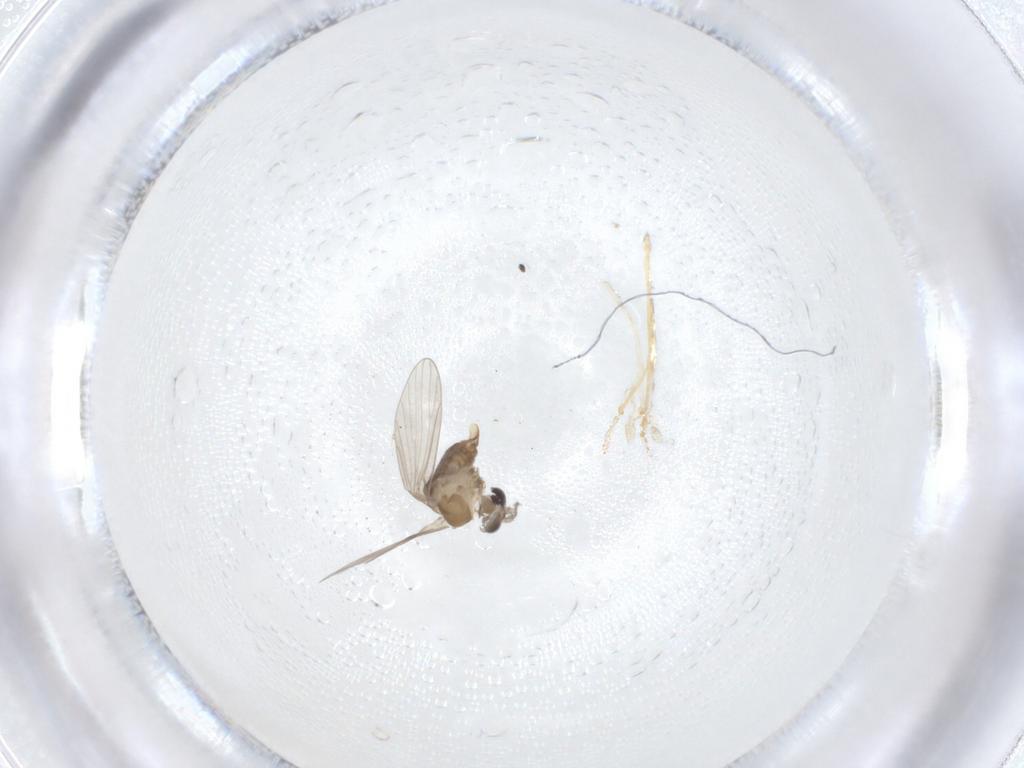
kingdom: Animalia
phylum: Arthropoda
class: Insecta
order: Diptera
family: Psychodidae
